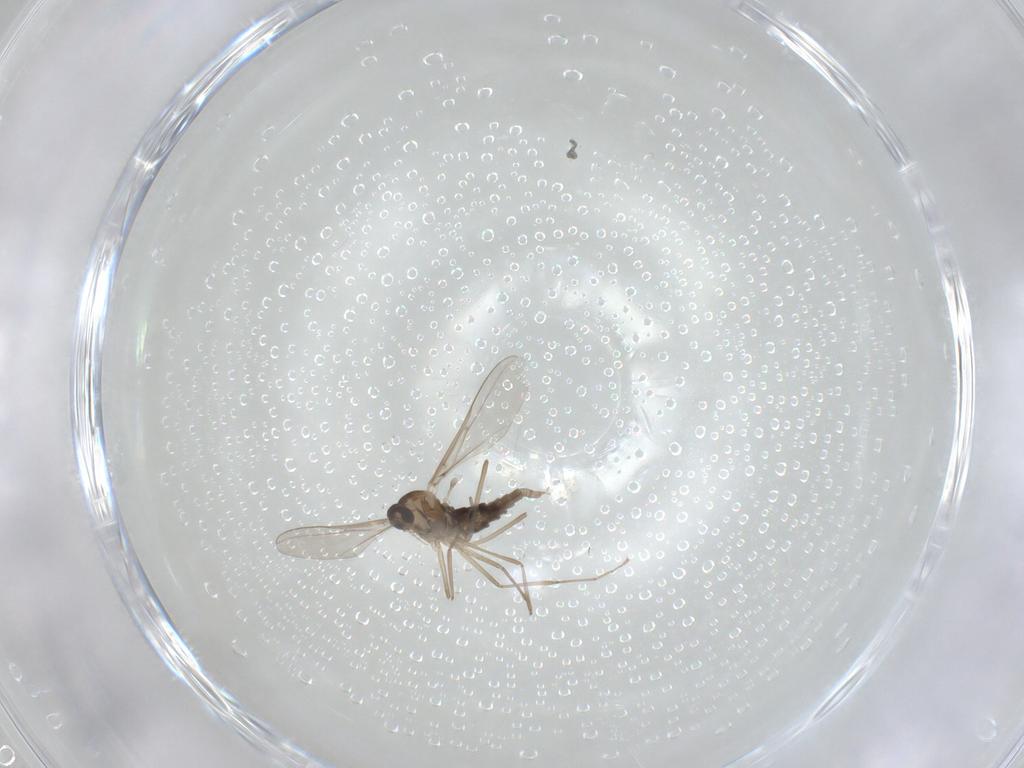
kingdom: Animalia
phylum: Arthropoda
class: Insecta
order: Diptera
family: Cecidomyiidae
